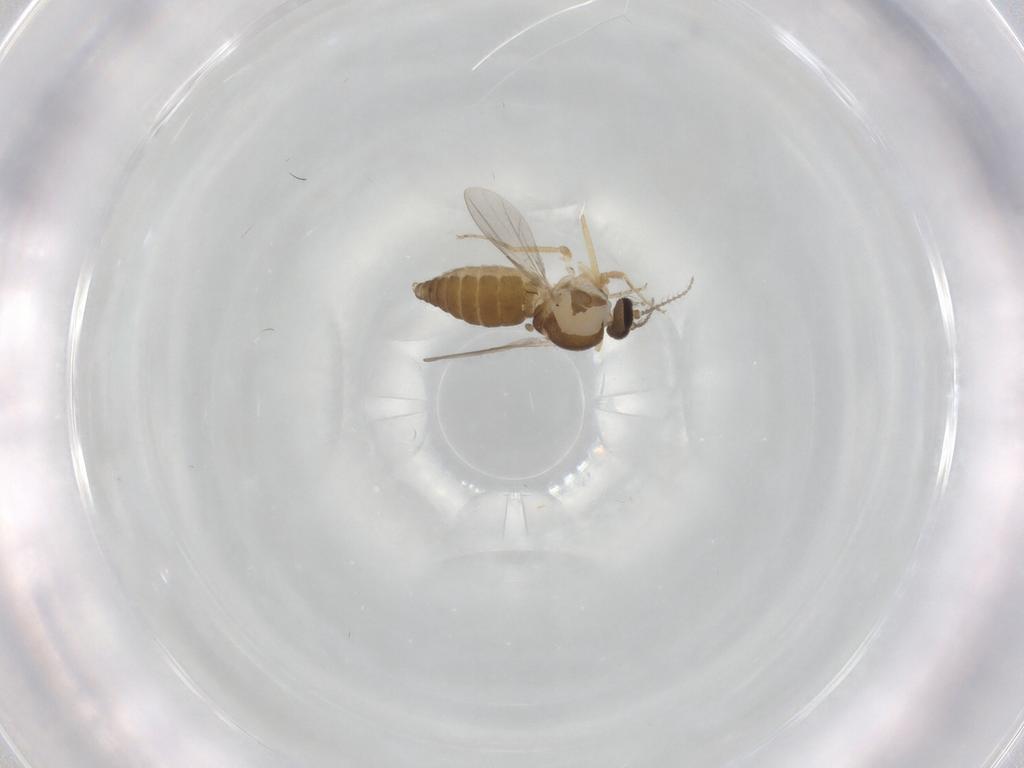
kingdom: Animalia
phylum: Arthropoda
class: Insecta
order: Diptera
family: Ceratopogonidae
